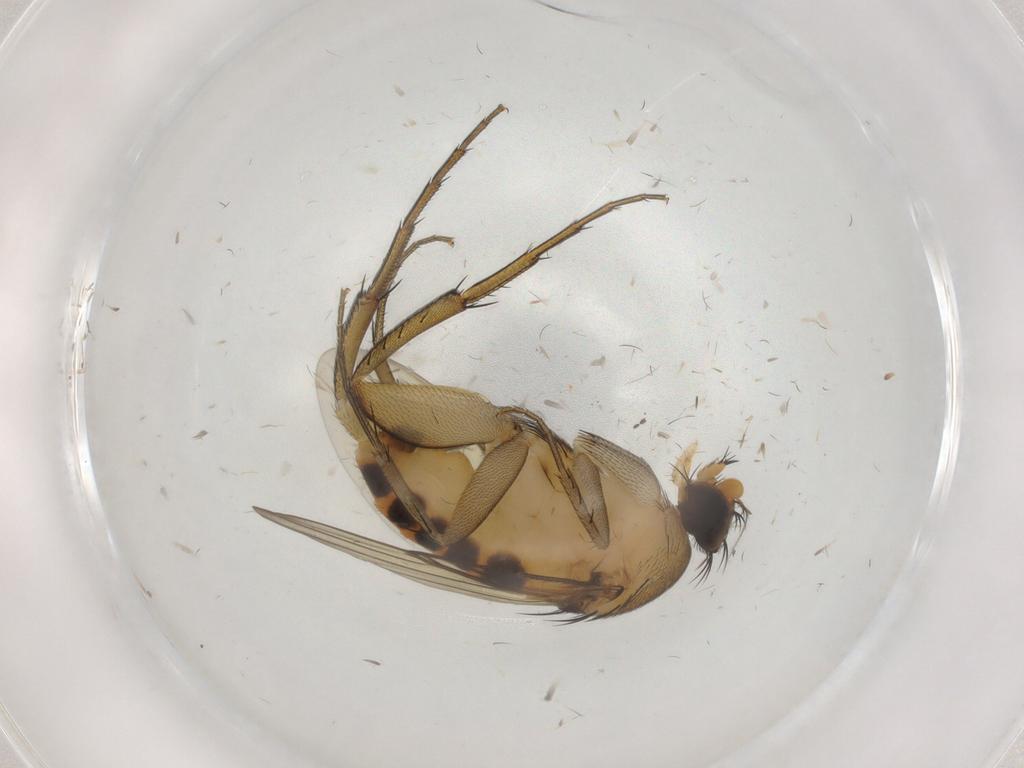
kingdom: Animalia
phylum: Arthropoda
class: Insecta
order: Diptera
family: Phoridae
